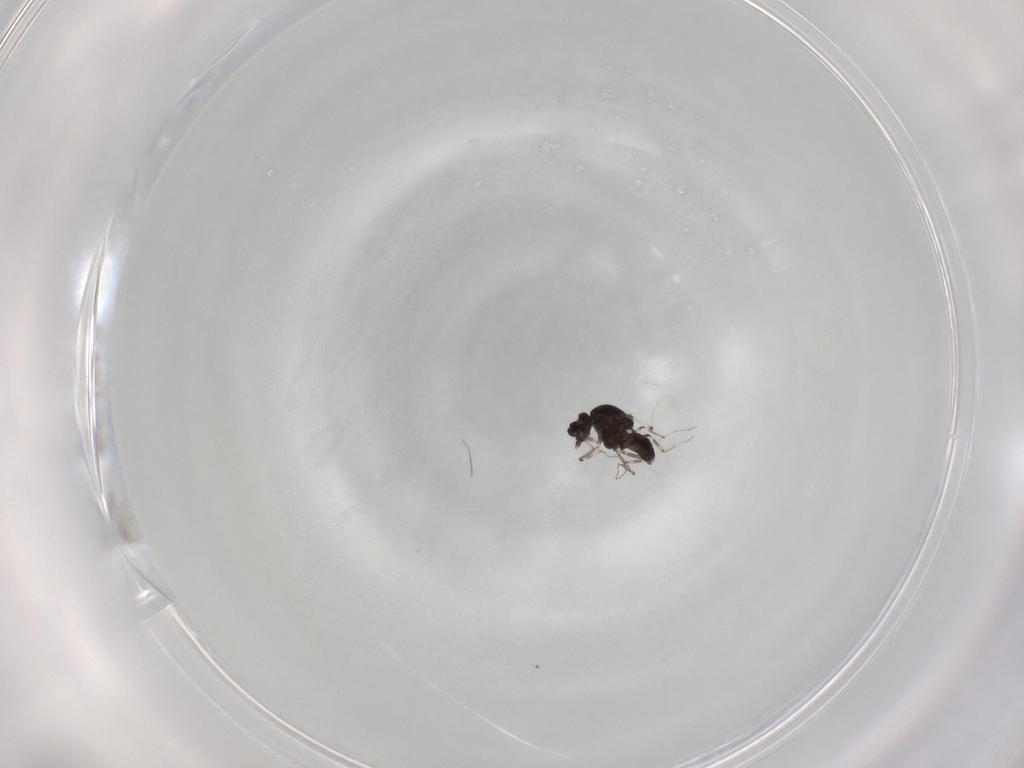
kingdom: Animalia
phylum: Arthropoda
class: Insecta
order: Diptera
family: Ceratopogonidae
